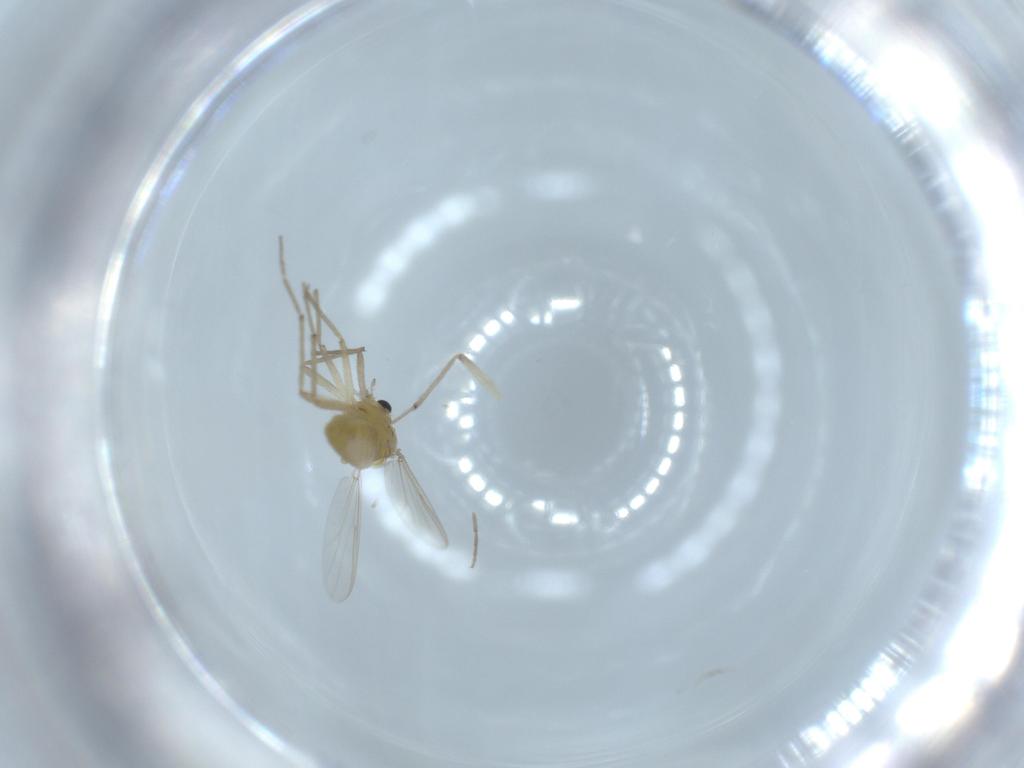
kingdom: Animalia
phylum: Arthropoda
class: Insecta
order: Diptera
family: Chironomidae
